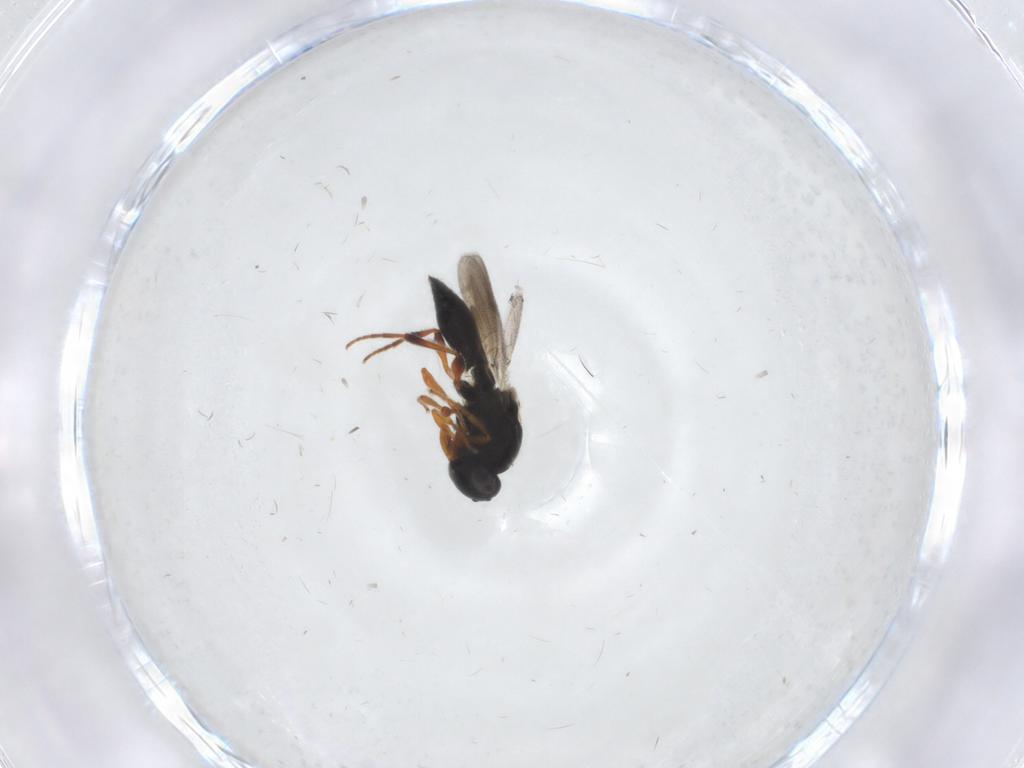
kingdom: Animalia
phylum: Arthropoda
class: Insecta
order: Hymenoptera
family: Platygastridae
